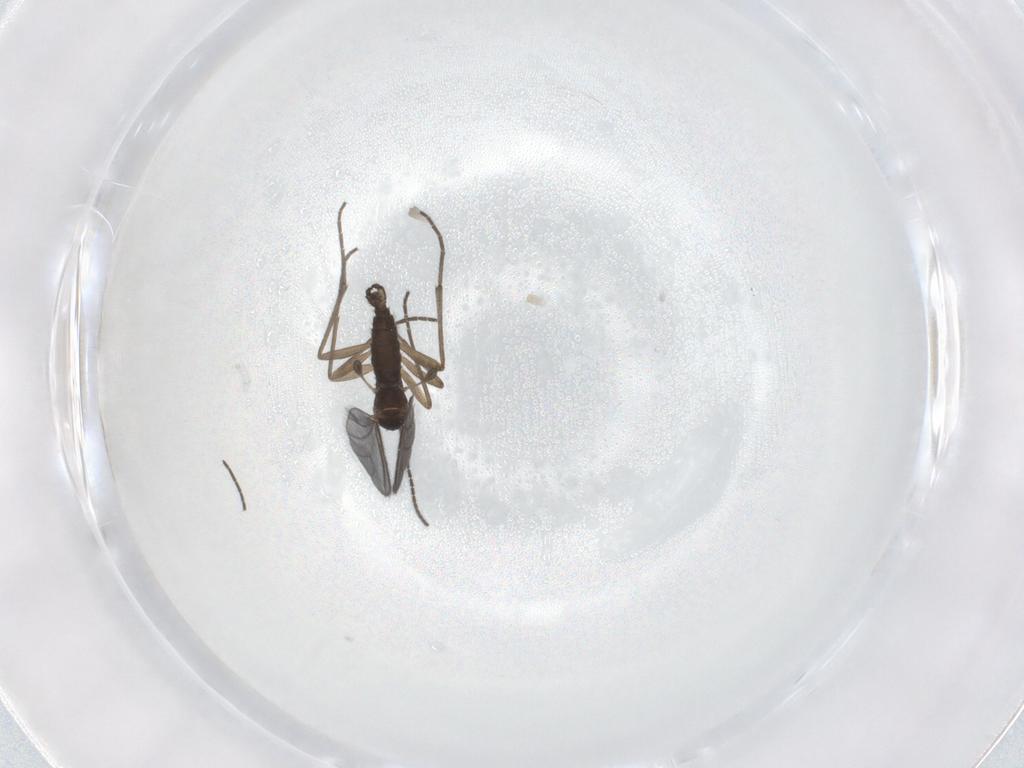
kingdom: Animalia
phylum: Arthropoda
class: Insecta
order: Diptera
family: Sciaridae
